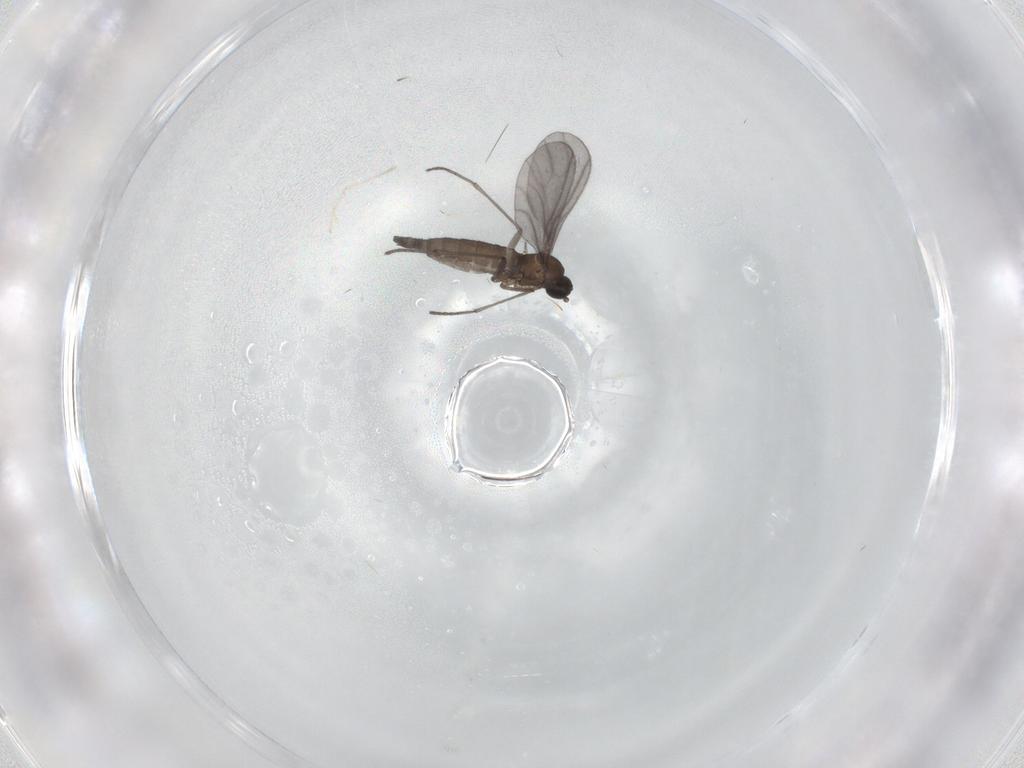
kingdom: Animalia
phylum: Arthropoda
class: Insecta
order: Diptera
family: Sciaridae
